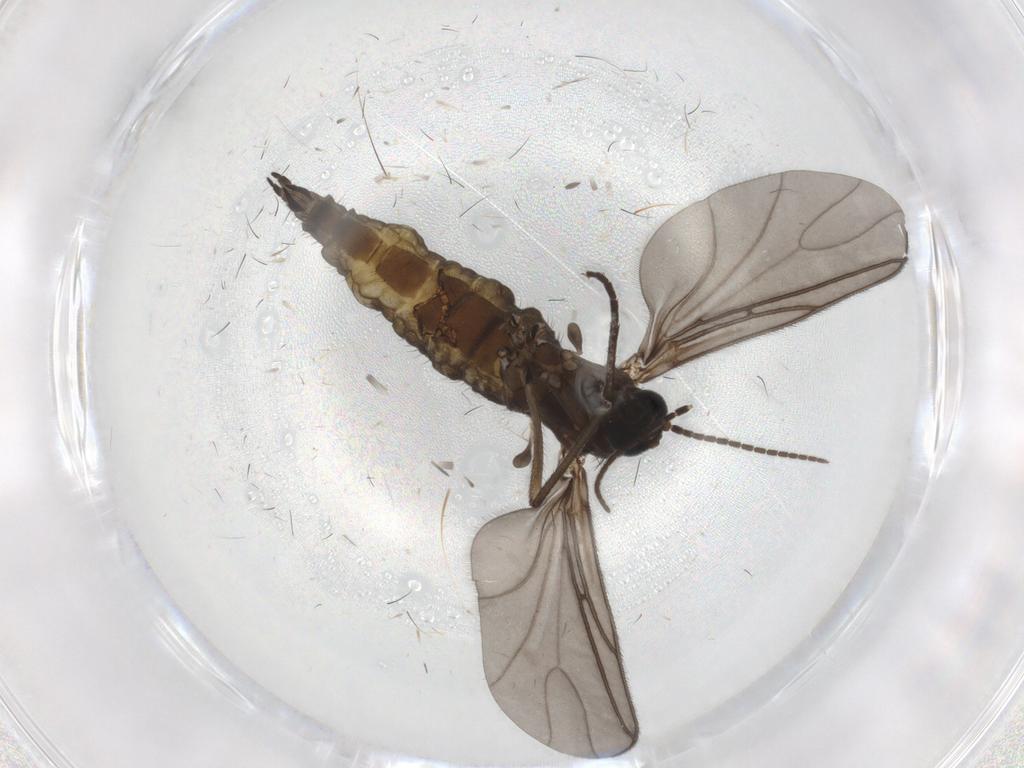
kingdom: Animalia
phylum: Arthropoda
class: Insecta
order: Diptera
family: Sciaridae
